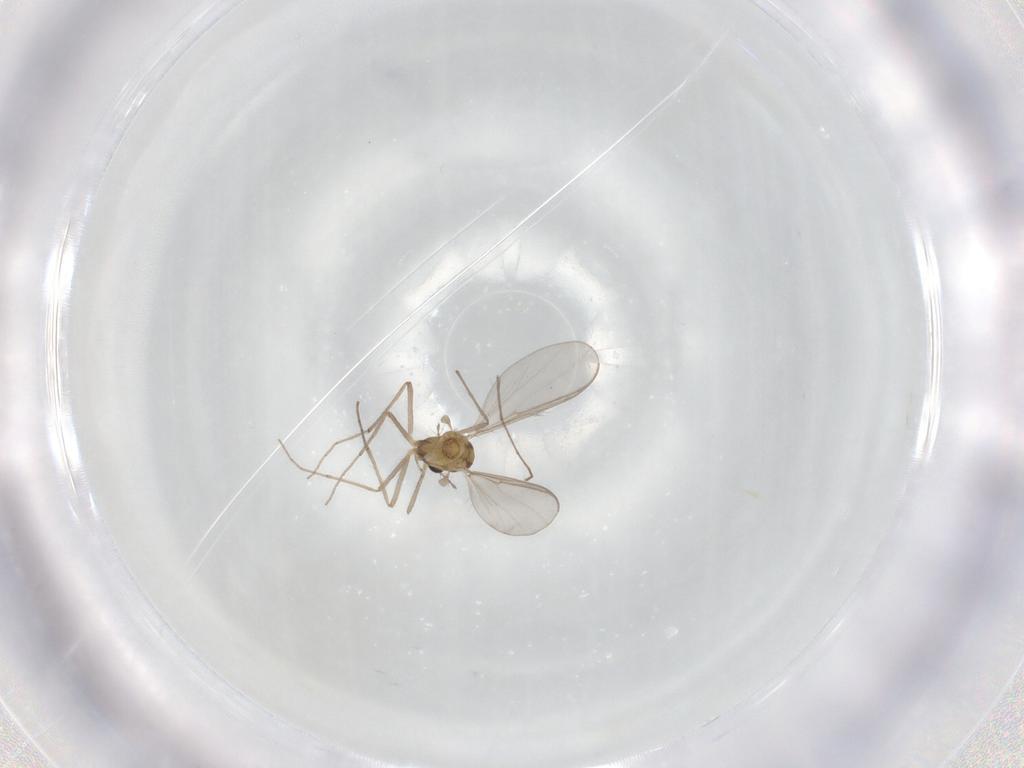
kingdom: Animalia
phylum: Arthropoda
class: Insecta
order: Diptera
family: Chironomidae
